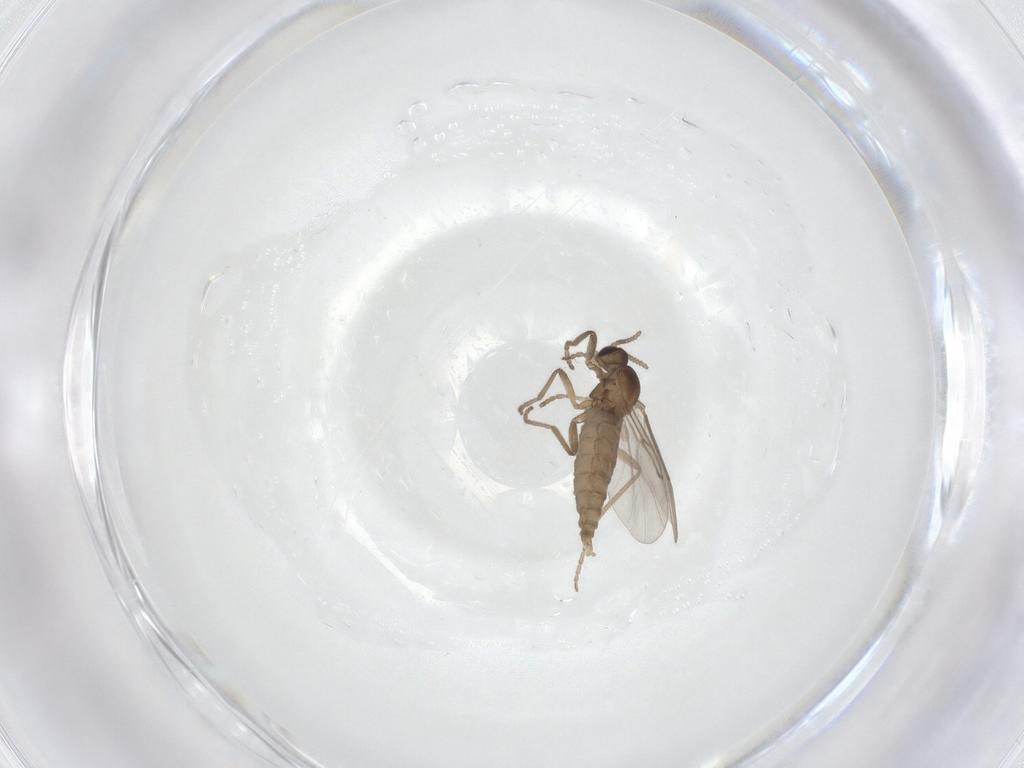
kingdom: Animalia
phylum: Arthropoda
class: Insecta
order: Diptera
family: Cecidomyiidae
